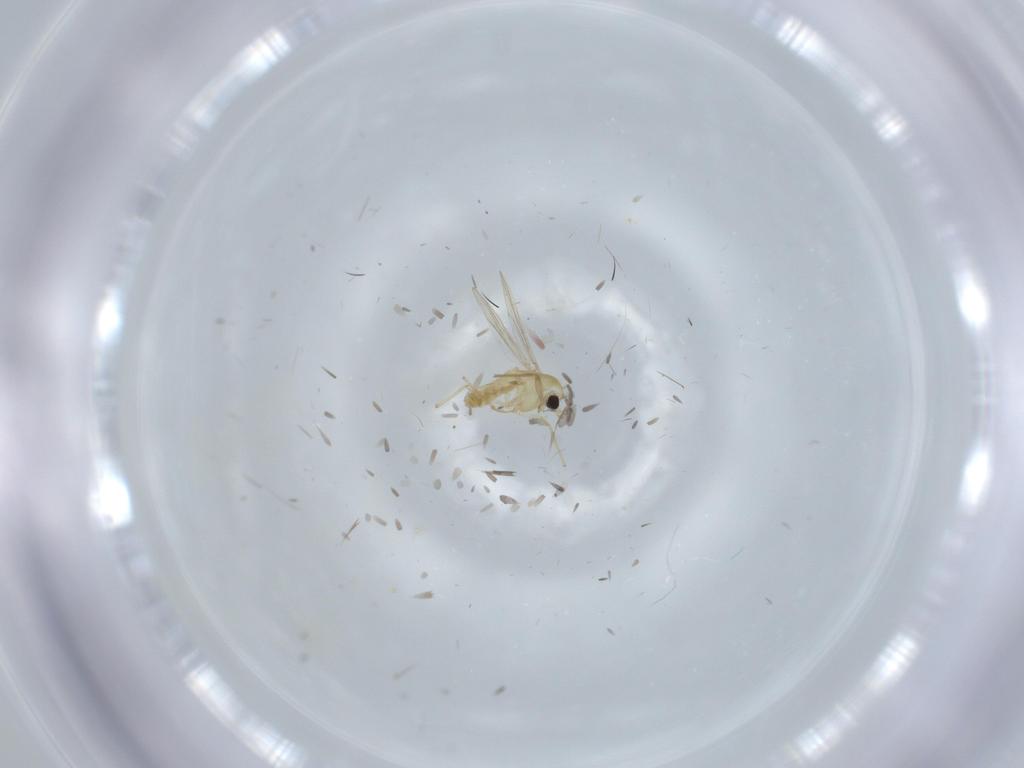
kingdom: Animalia
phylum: Arthropoda
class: Insecta
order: Diptera
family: Chironomidae
